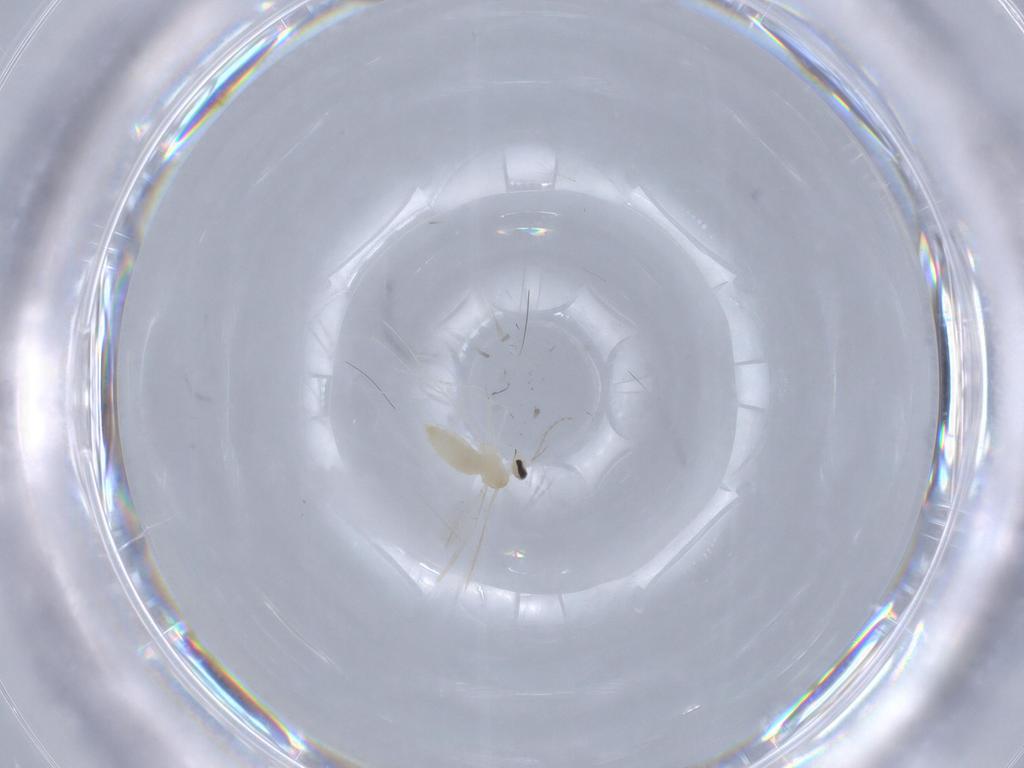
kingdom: Animalia
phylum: Arthropoda
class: Insecta
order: Diptera
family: Cecidomyiidae
